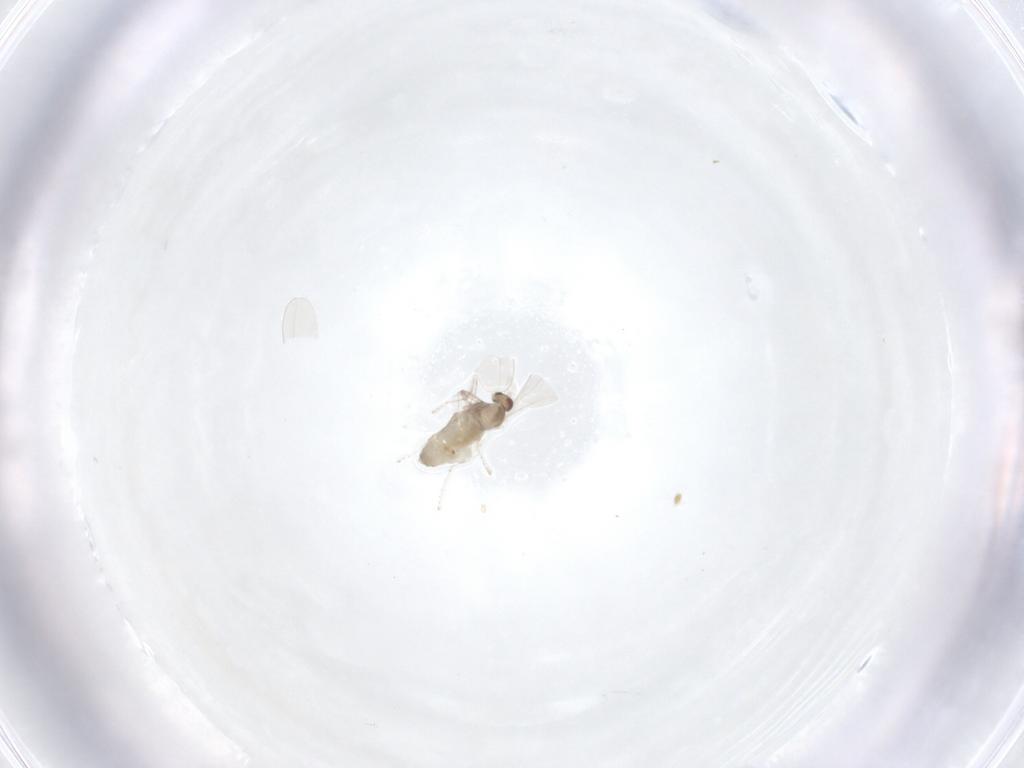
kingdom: Animalia
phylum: Arthropoda
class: Insecta
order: Diptera
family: Cecidomyiidae
